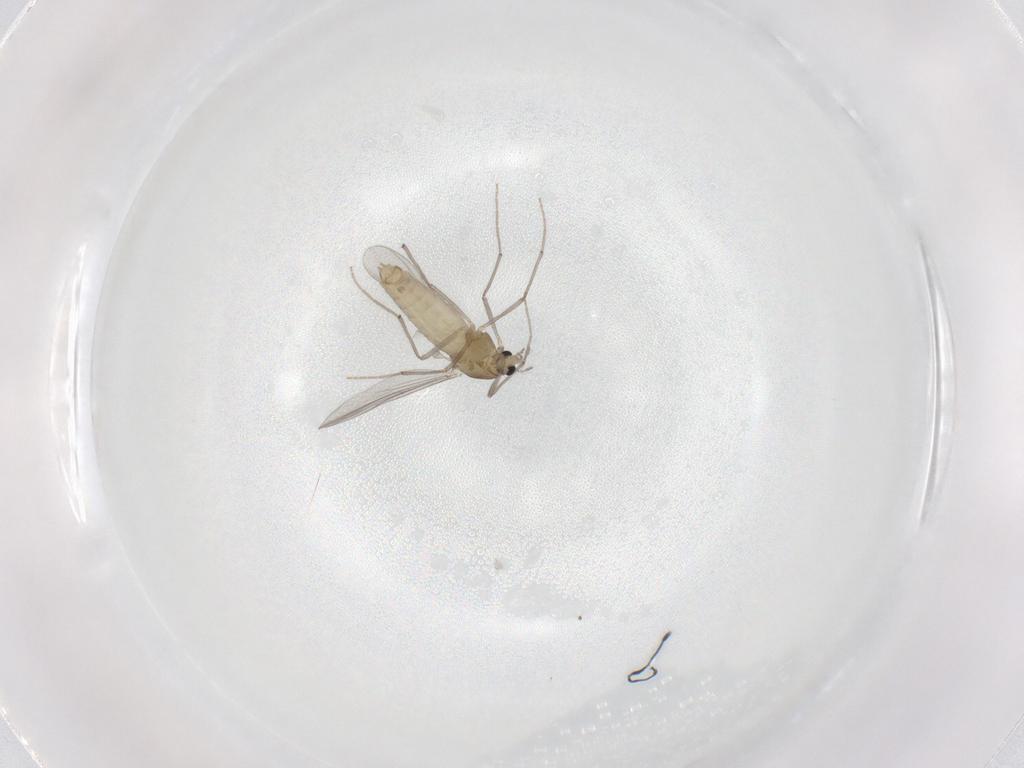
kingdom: Animalia
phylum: Arthropoda
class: Insecta
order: Diptera
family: Chironomidae
